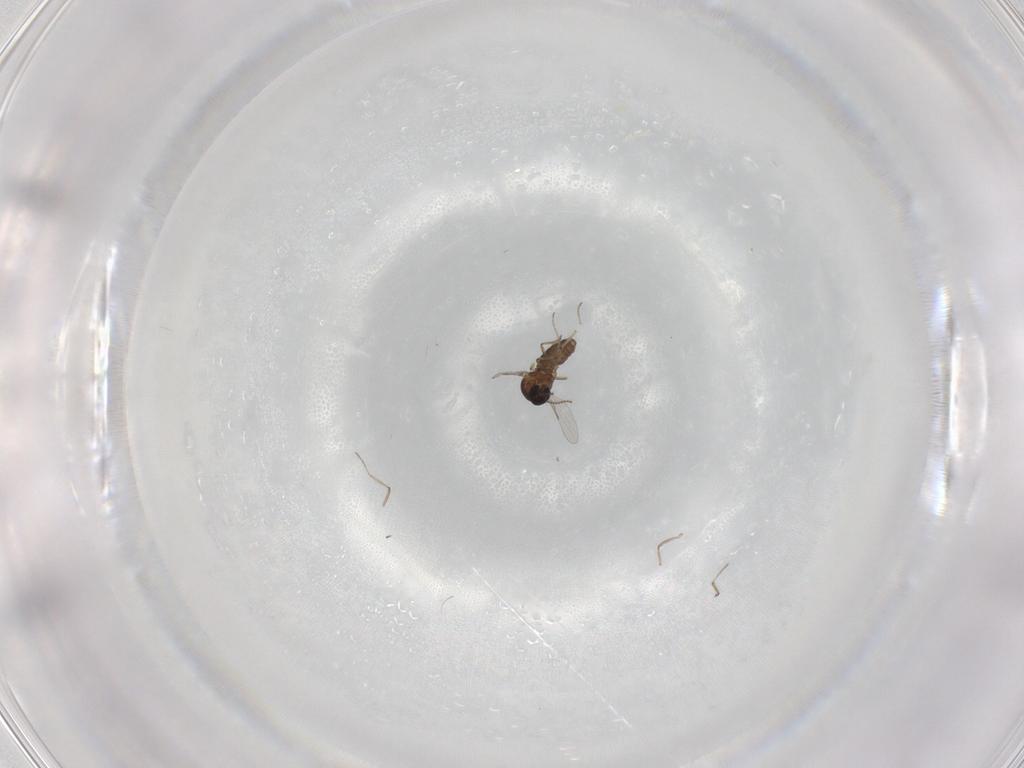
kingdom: Animalia
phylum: Arthropoda
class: Insecta
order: Diptera
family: Ceratopogonidae
